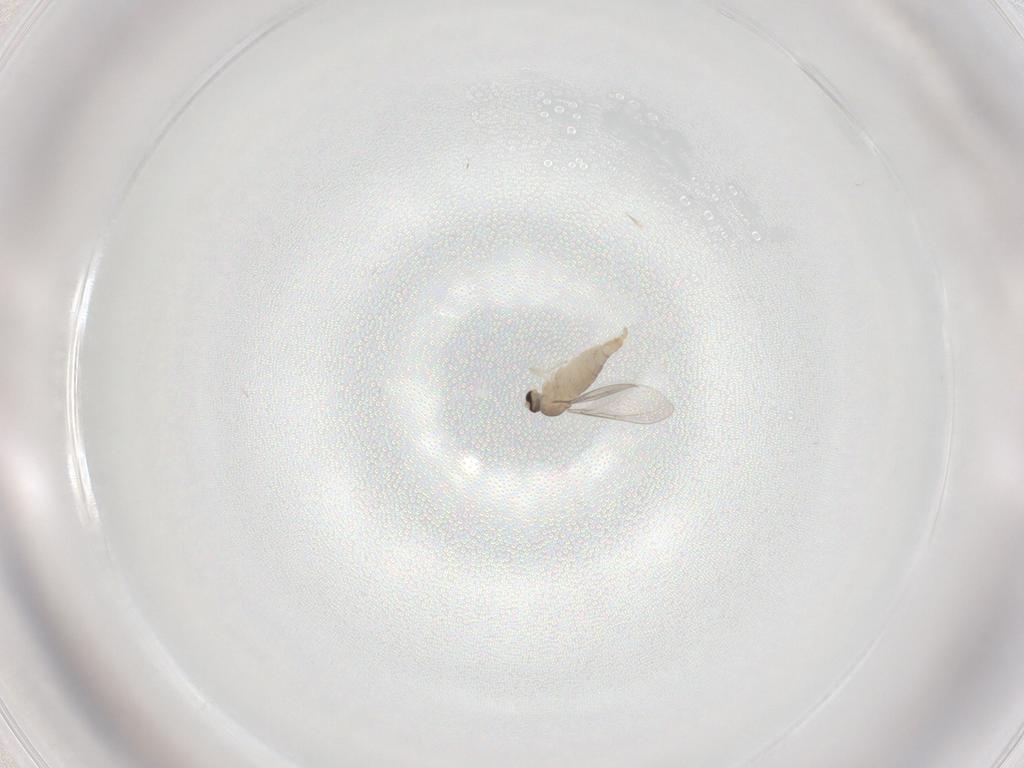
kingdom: Animalia
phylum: Arthropoda
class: Insecta
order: Diptera
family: Cecidomyiidae
